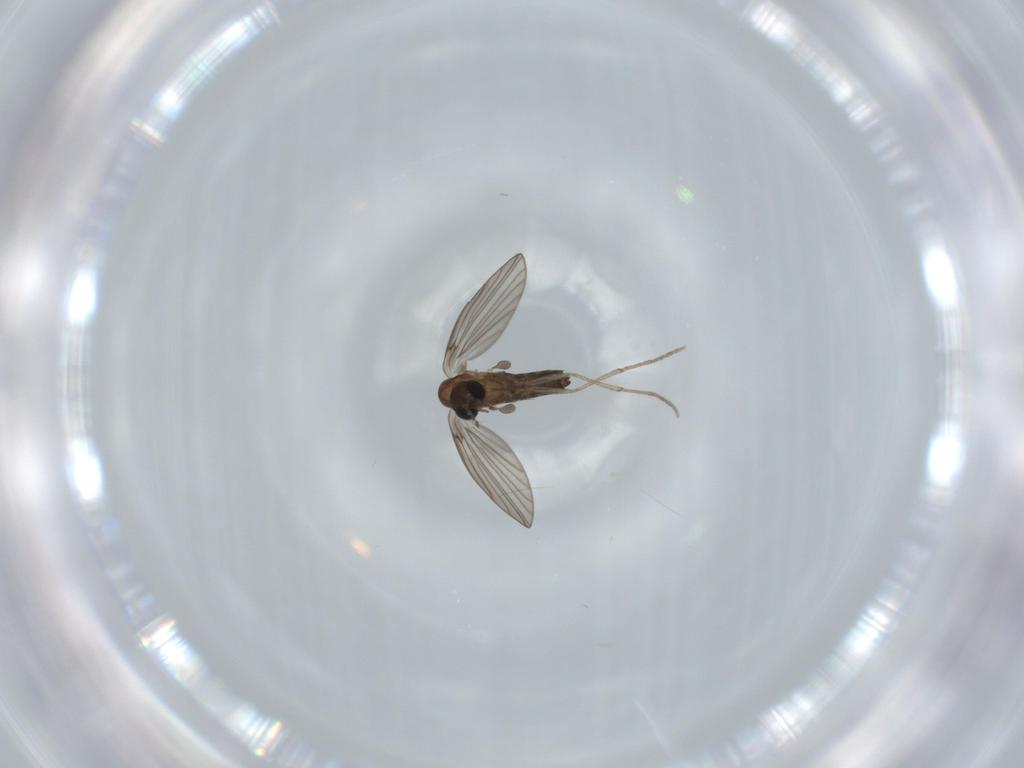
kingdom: Animalia
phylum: Arthropoda
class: Insecta
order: Diptera
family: Psychodidae
